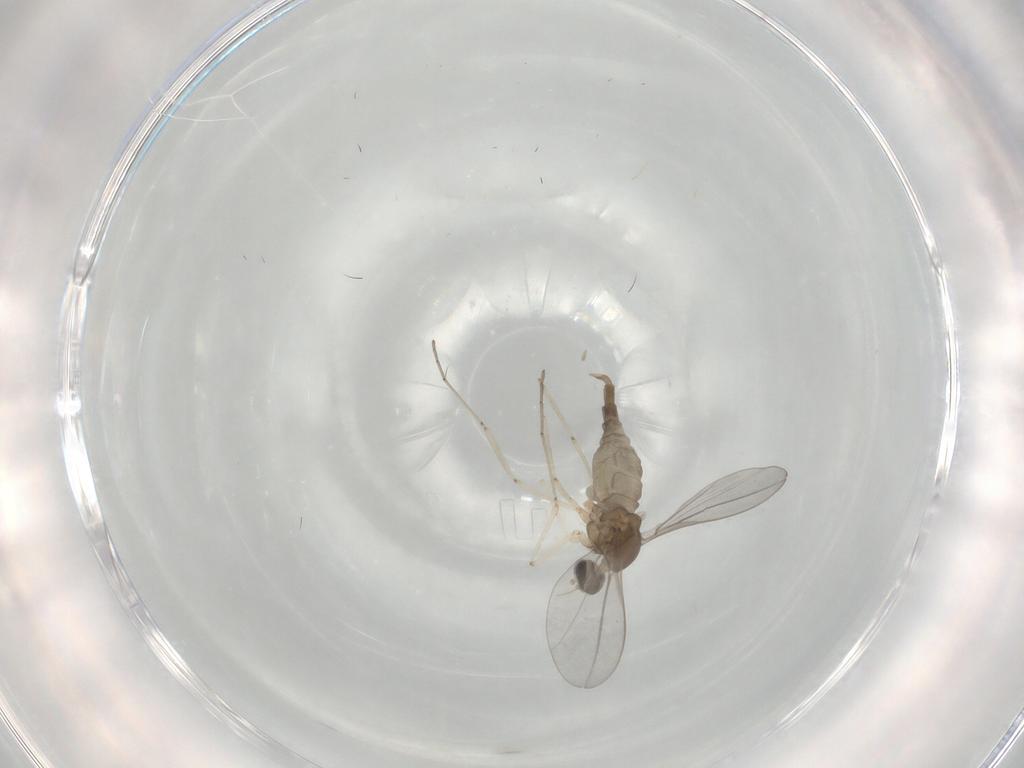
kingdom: Animalia
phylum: Arthropoda
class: Insecta
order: Diptera
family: Cecidomyiidae
